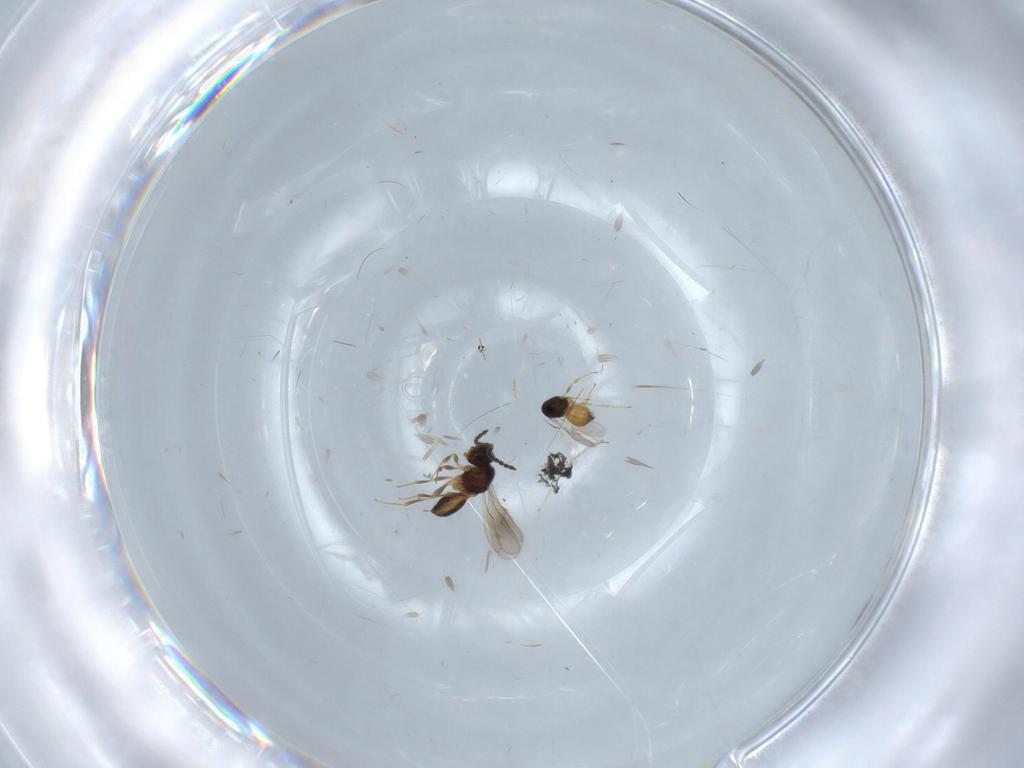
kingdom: Animalia
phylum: Arthropoda
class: Insecta
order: Hymenoptera
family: Scelionidae
